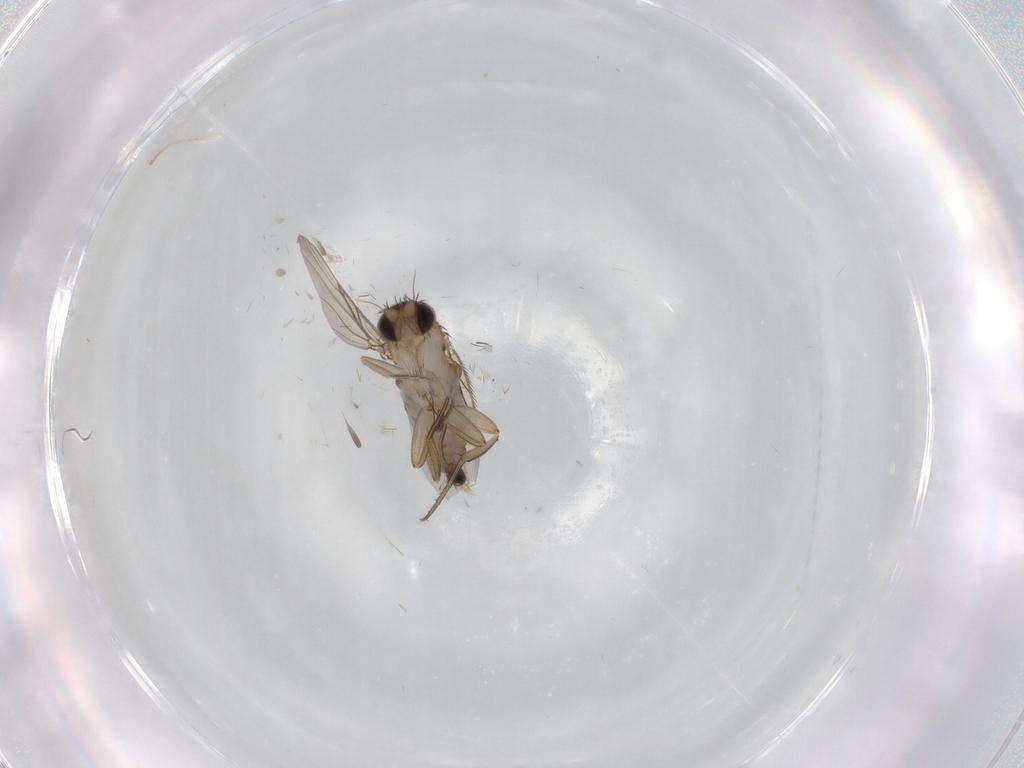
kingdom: Animalia
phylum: Arthropoda
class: Insecta
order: Diptera
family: Phoridae
